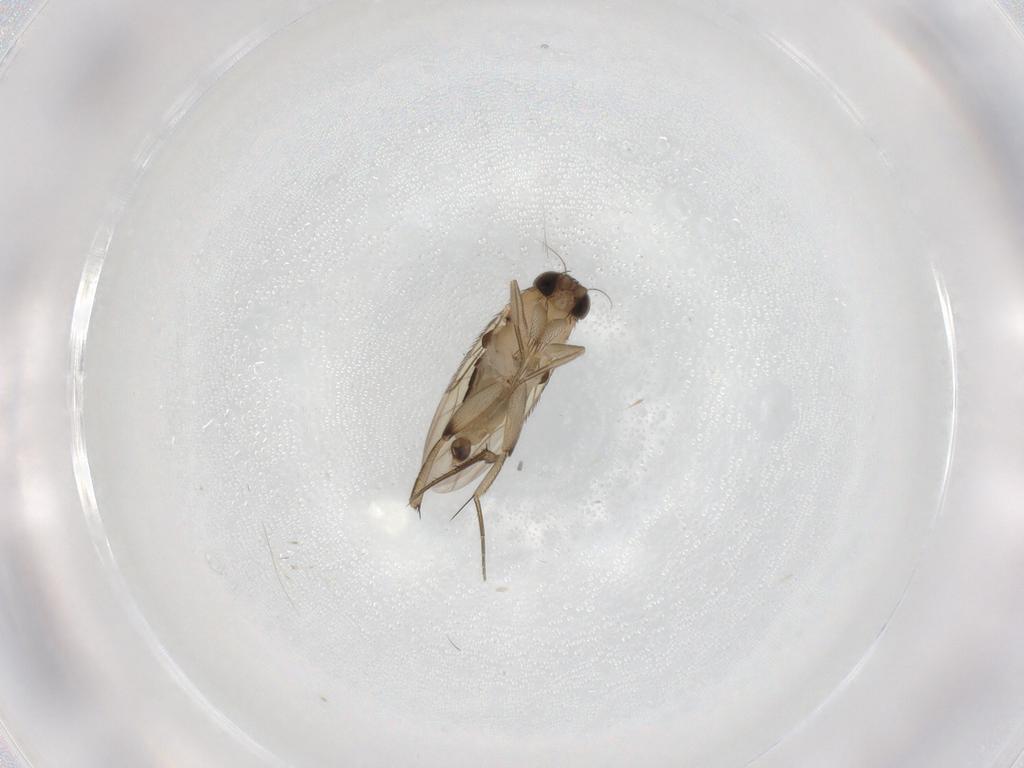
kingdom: Animalia
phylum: Arthropoda
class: Insecta
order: Diptera
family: Phoridae
